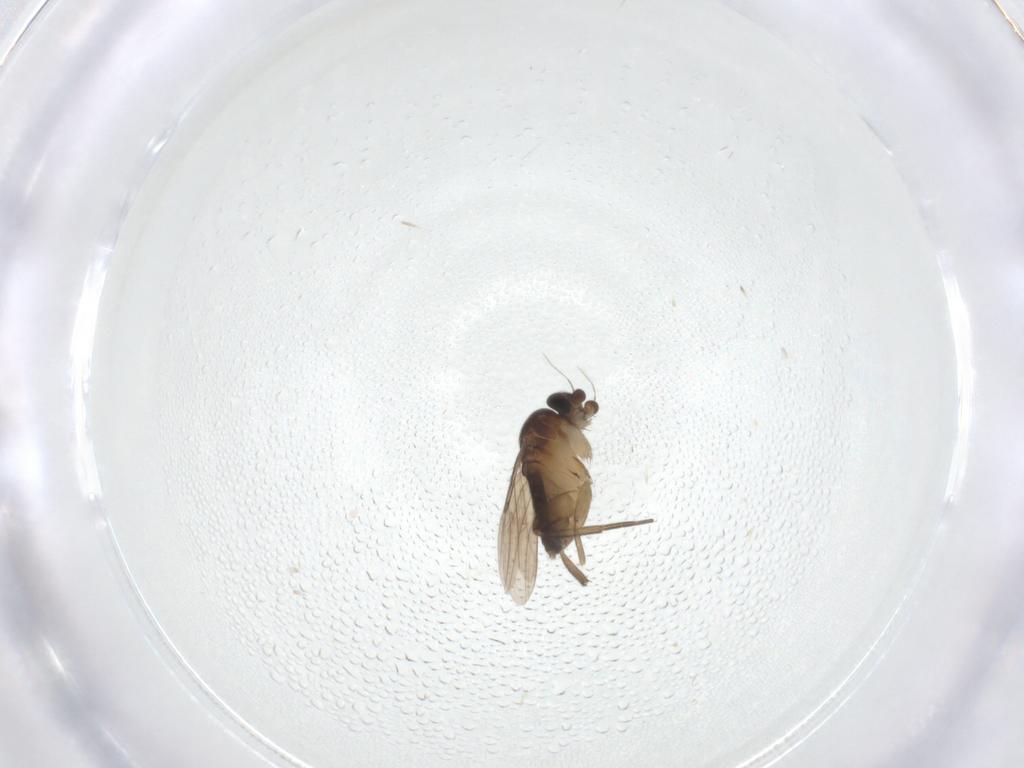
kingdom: Animalia
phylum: Arthropoda
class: Insecta
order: Diptera
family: Phoridae
